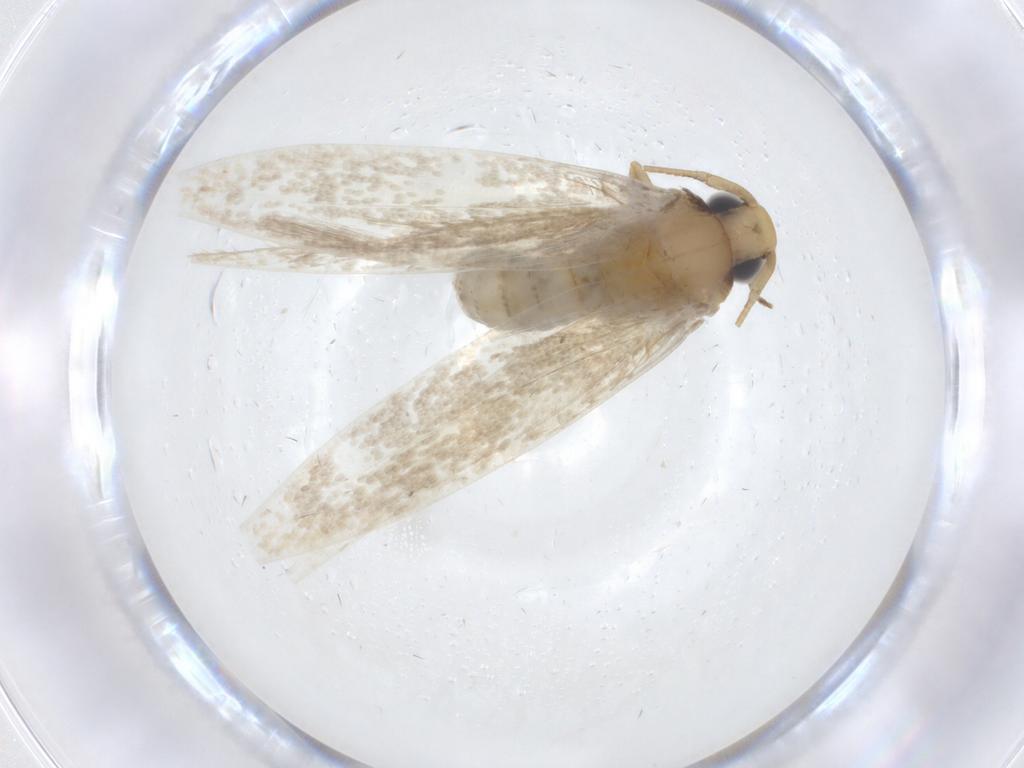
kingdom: Animalia
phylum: Arthropoda
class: Insecta
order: Lepidoptera
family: Tineidae
